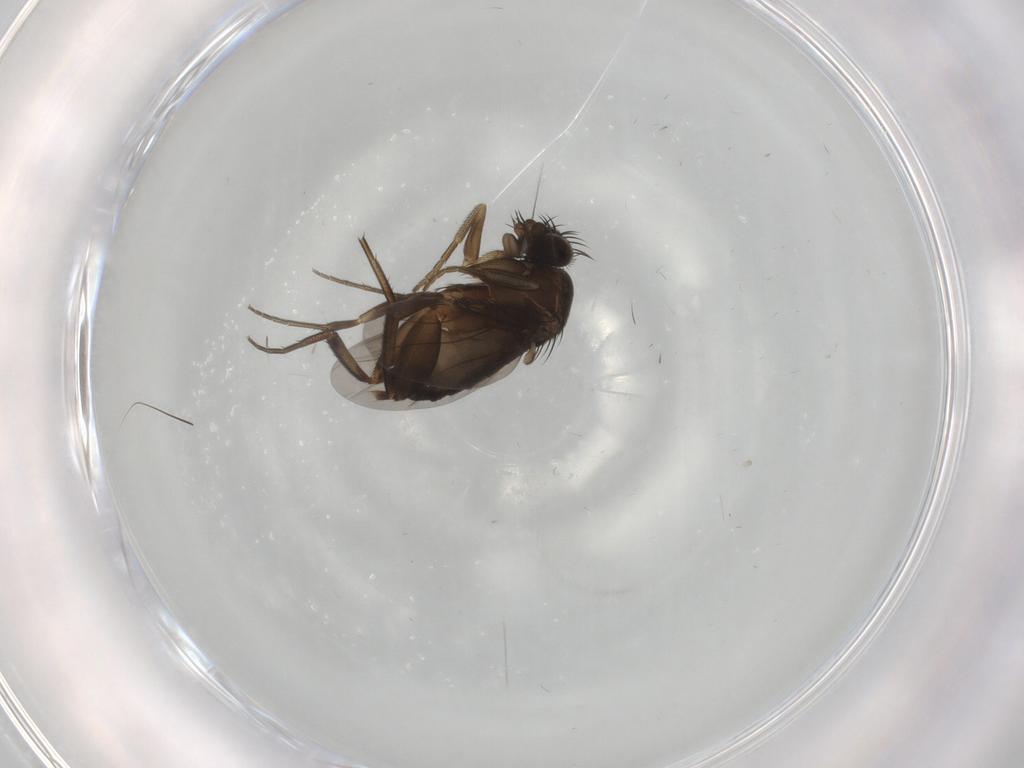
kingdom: Animalia
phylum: Arthropoda
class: Insecta
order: Diptera
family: Phoridae
